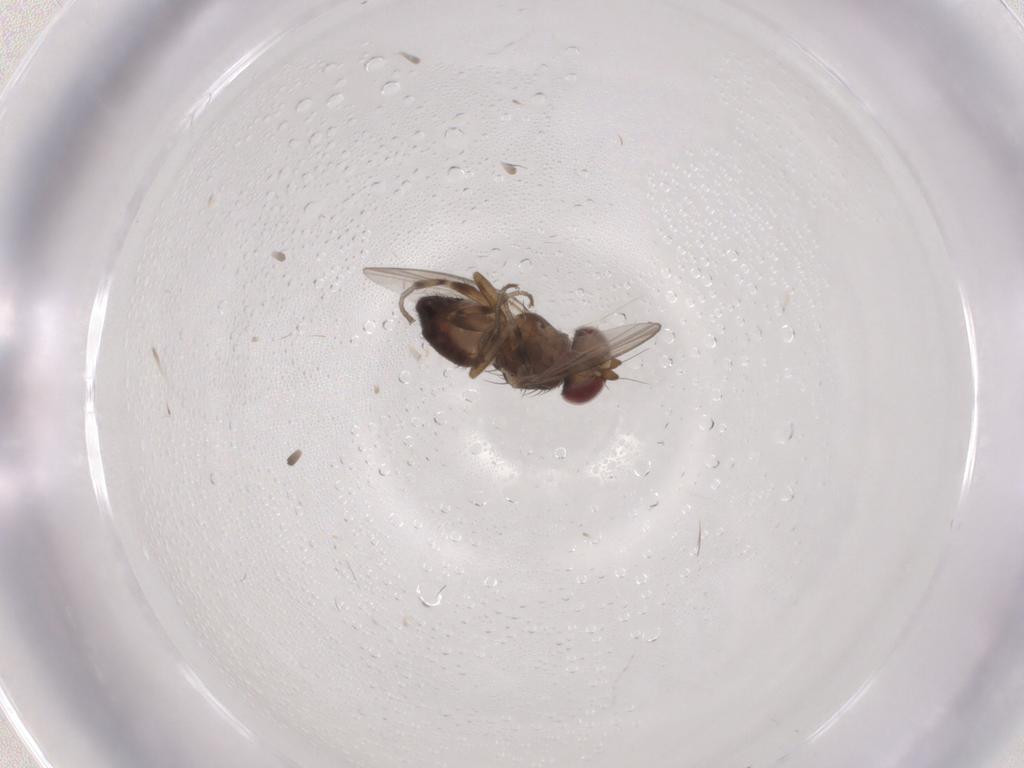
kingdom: Animalia
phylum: Arthropoda
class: Insecta
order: Diptera
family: Heleomyzidae
